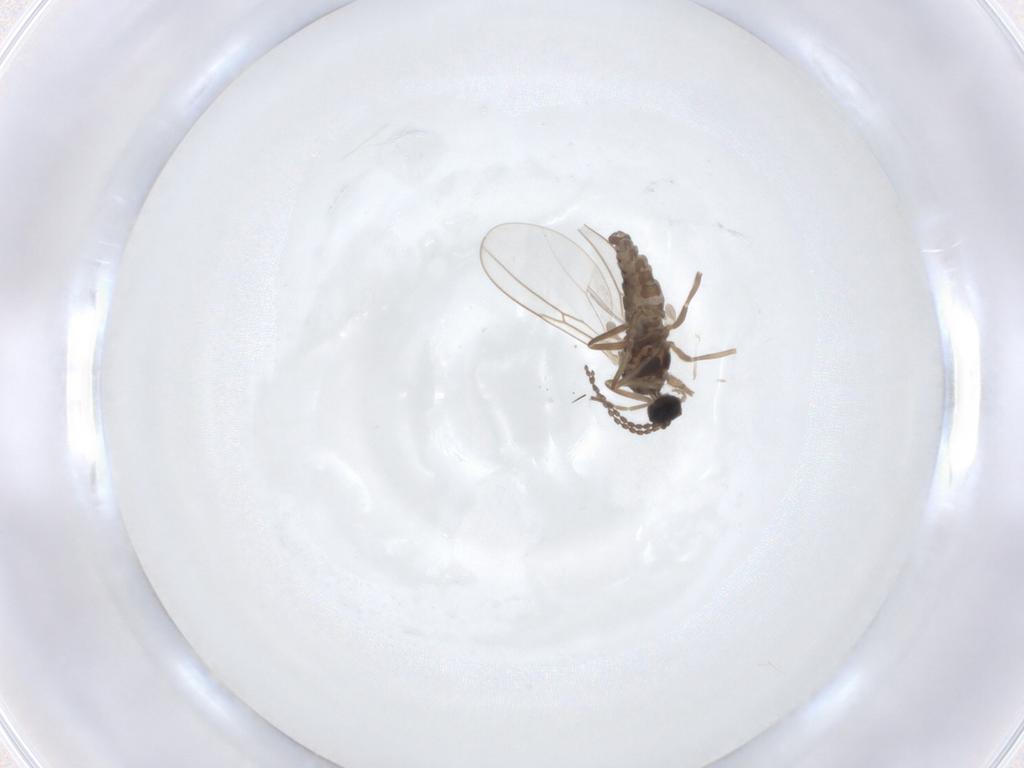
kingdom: Animalia
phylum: Arthropoda
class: Insecta
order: Diptera
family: Cecidomyiidae
